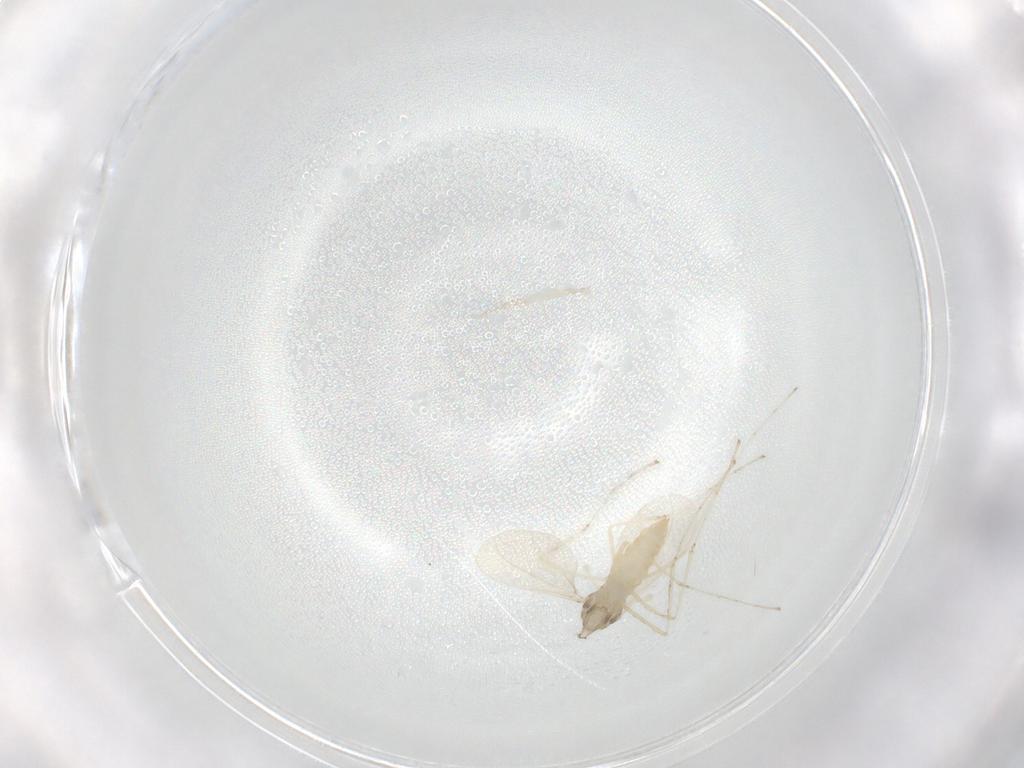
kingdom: Animalia
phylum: Arthropoda
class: Insecta
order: Diptera
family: Cecidomyiidae
